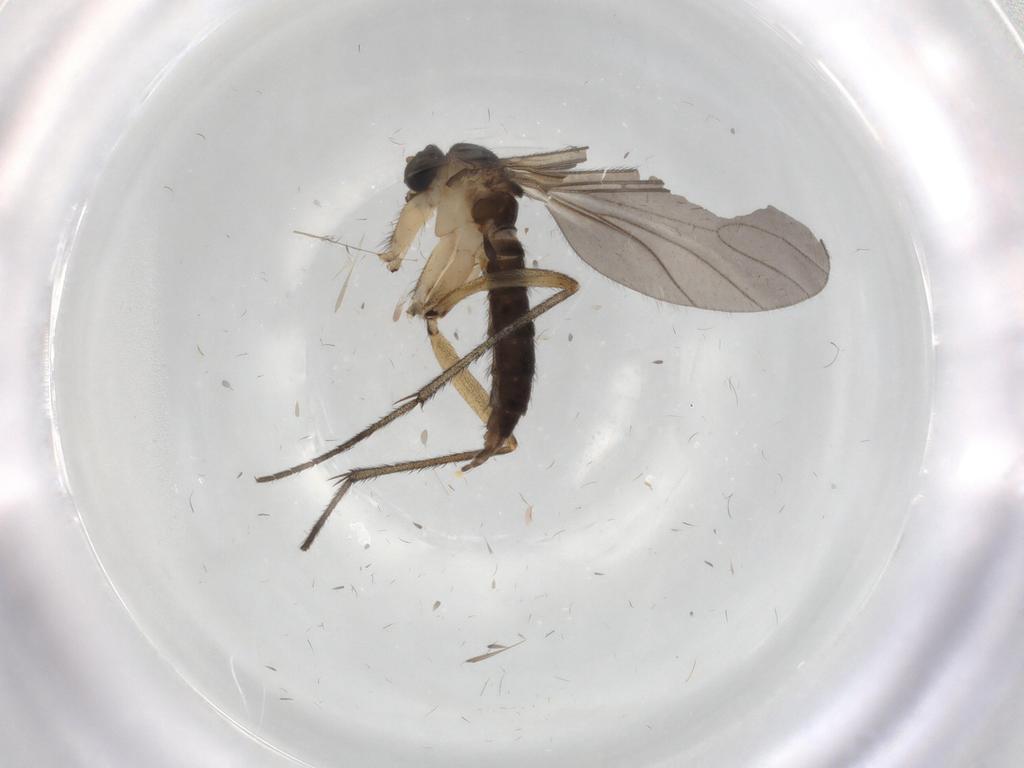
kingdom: Animalia
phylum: Arthropoda
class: Insecta
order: Diptera
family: Sciaridae
